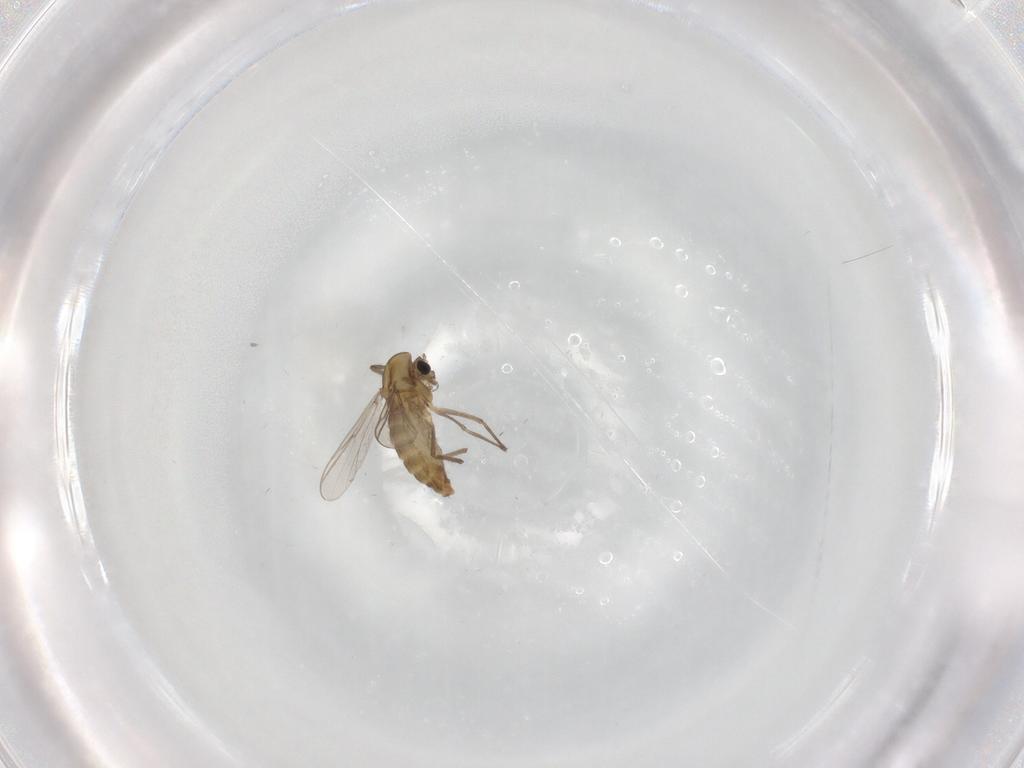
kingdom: Animalia
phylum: Arthropoda
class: Insecta
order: Diptera
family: Chironomidae
